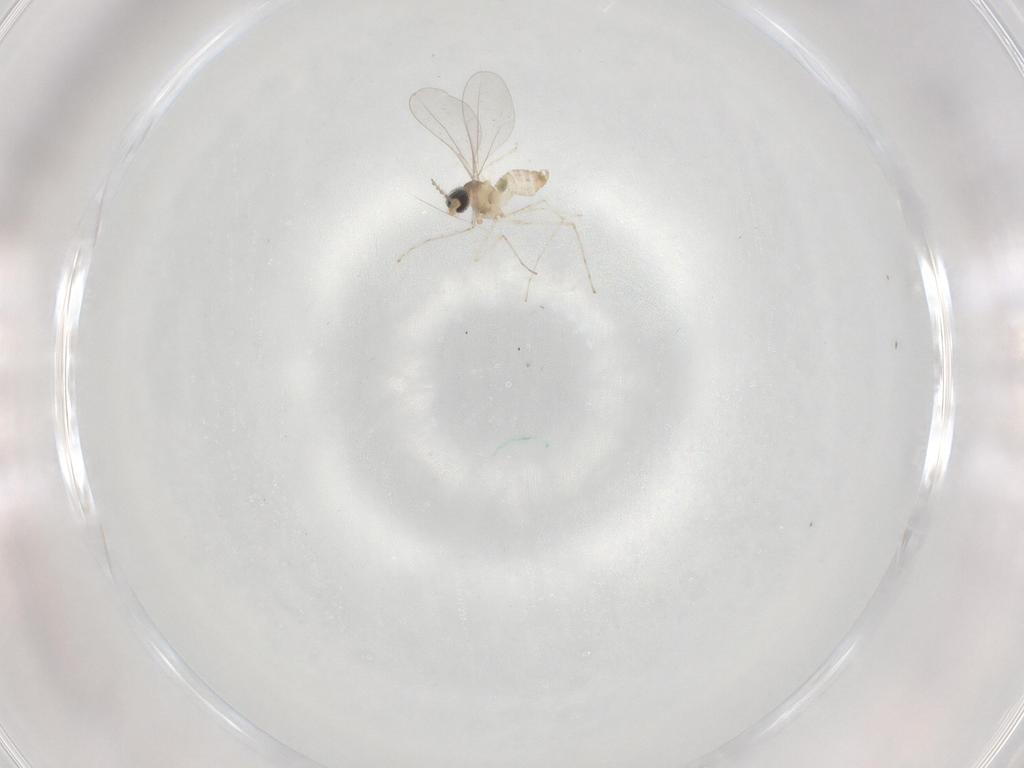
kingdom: Animalia
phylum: Arthropoda
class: Insecta
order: Diptera
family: Cecidomyiidae
